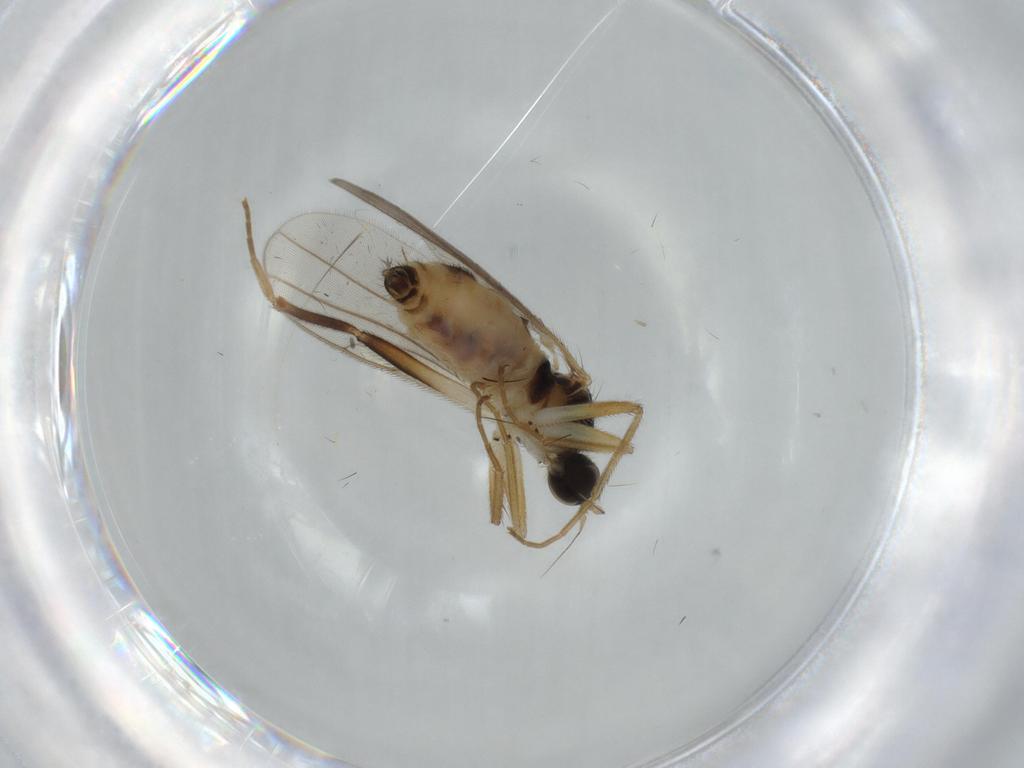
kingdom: Animalia
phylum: Arthropoda
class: Insecta
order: Diptera
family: Hybotidae
